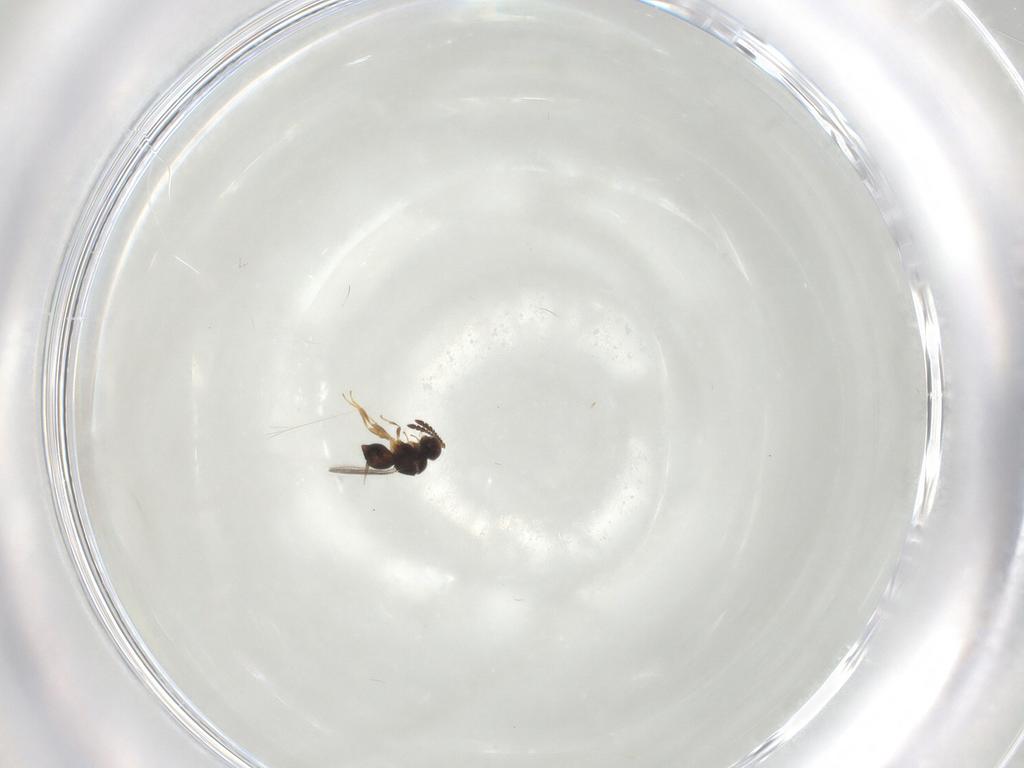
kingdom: Animalia
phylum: Arthropoda
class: Insecta
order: Hymenoptera
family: Ceraphronidae
